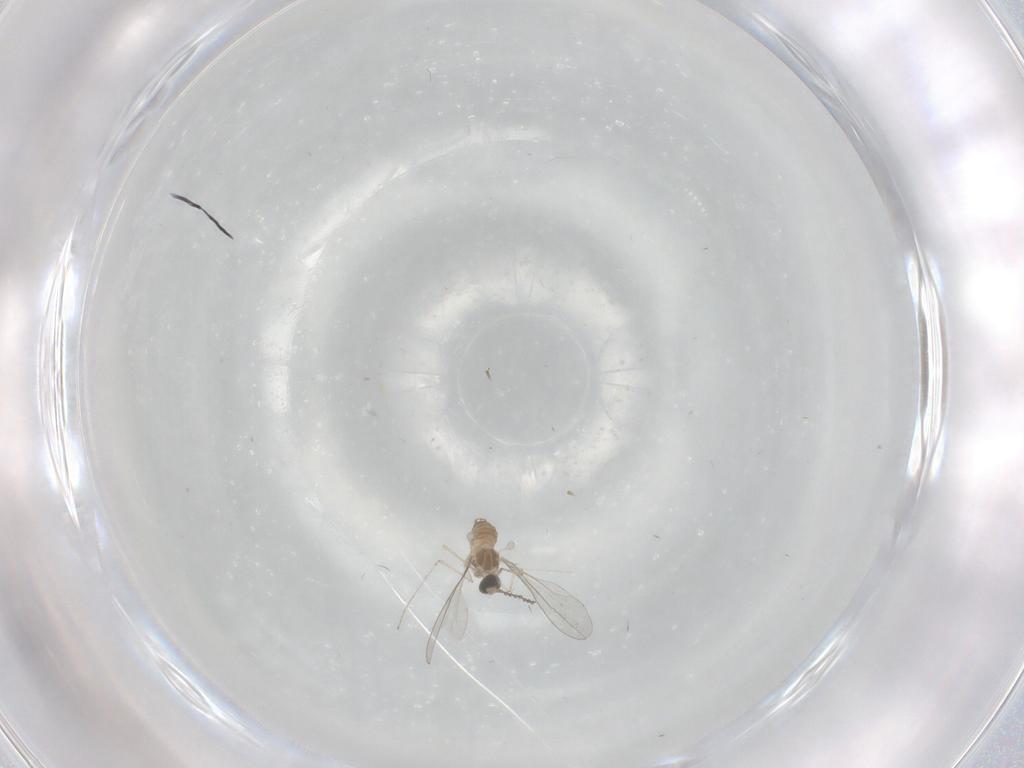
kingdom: Animalia
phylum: Arthropoda
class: Insecta
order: Diptera
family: Cecidomyiidae
